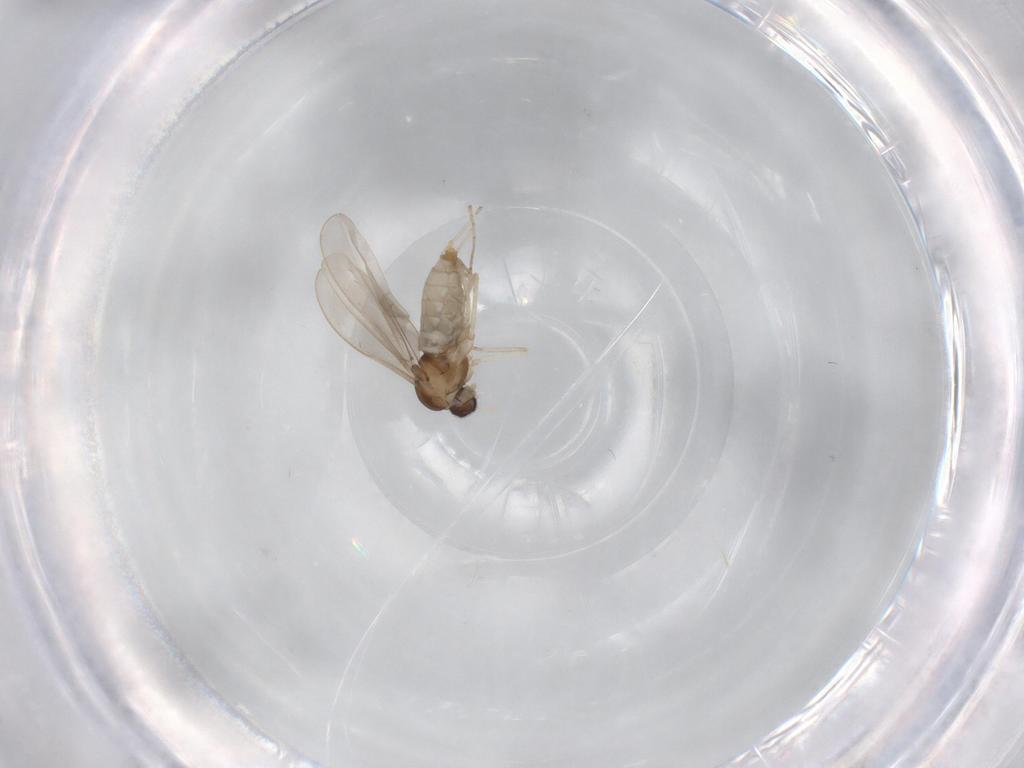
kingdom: Animalia
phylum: Arthropoda
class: Insecta
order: Diptera
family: Cecidomyiidae
